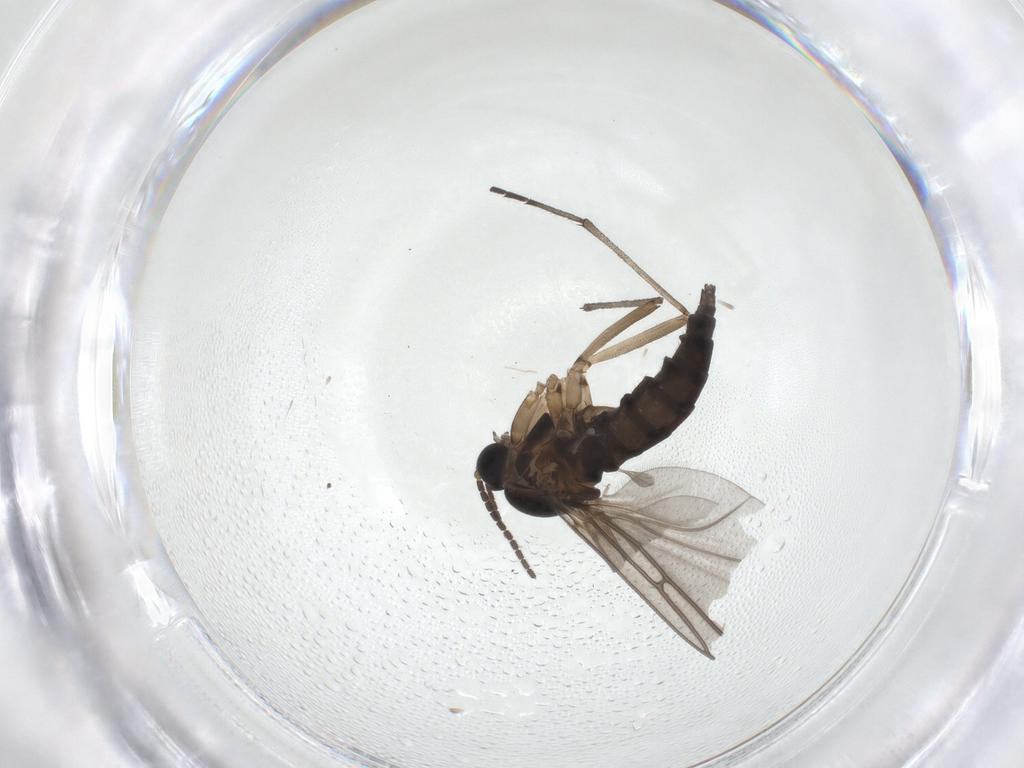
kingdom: Animalia
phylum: Arthropoda
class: Insecta
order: Diptera
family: Sciaridae
